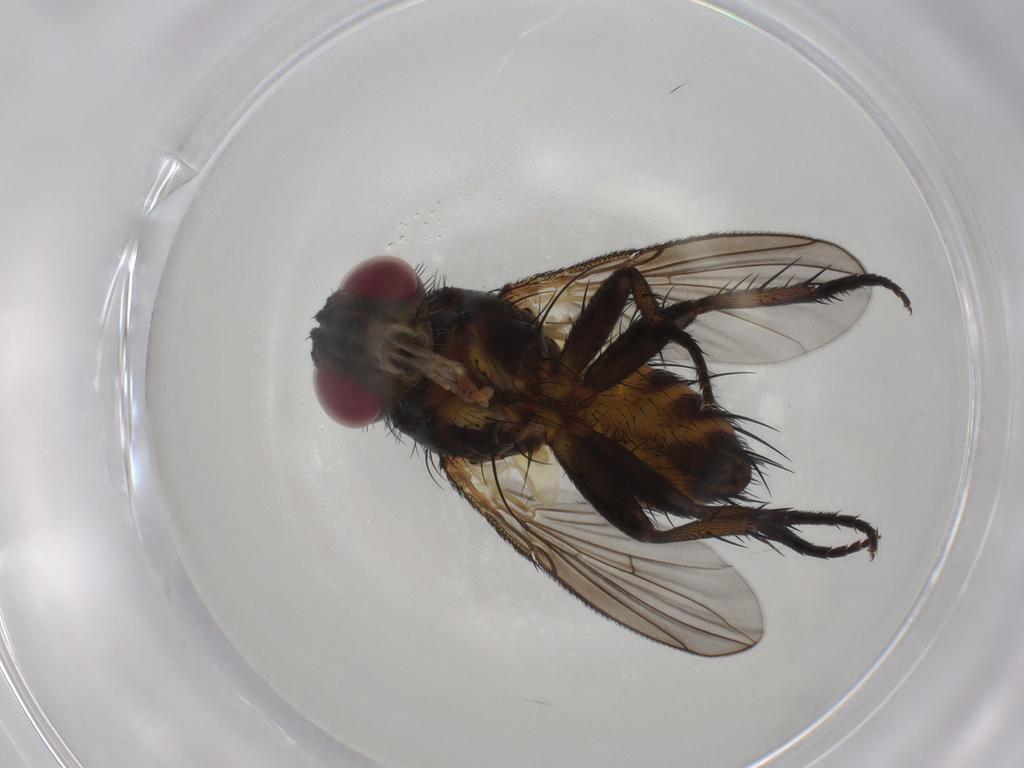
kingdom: Animalia
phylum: Arthropoda
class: Insecta
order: Diptera
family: Tachinidae
